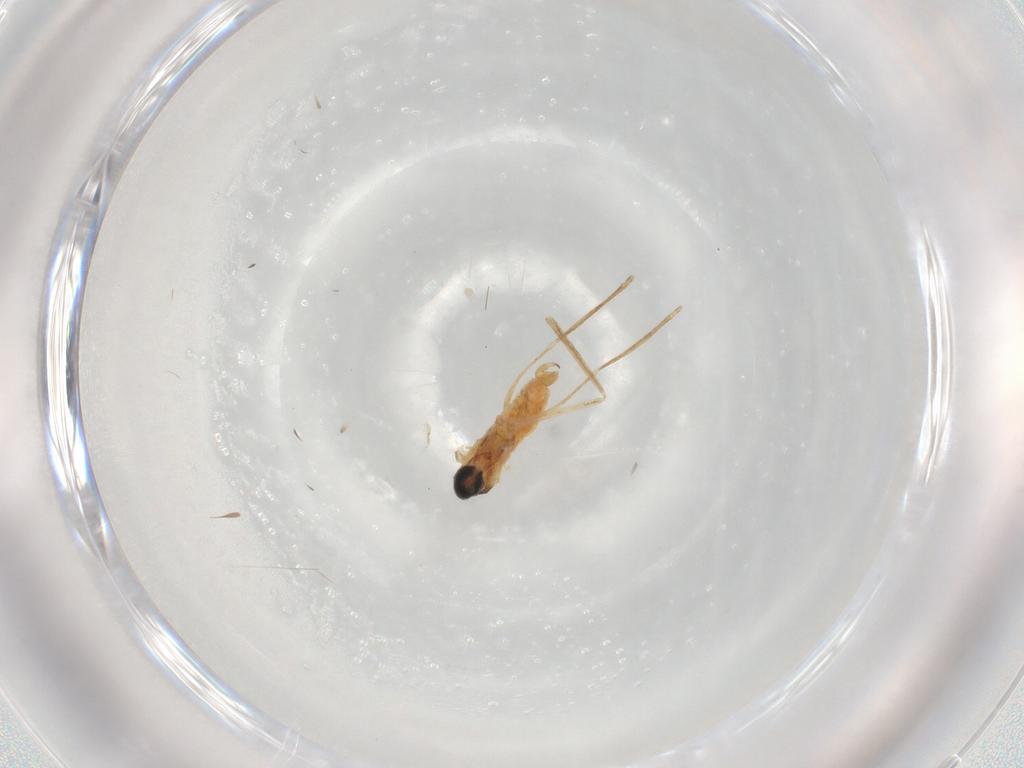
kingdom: Animalia
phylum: Arthropoda
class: Insecta
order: Diptera
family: Cecidomyiidae
